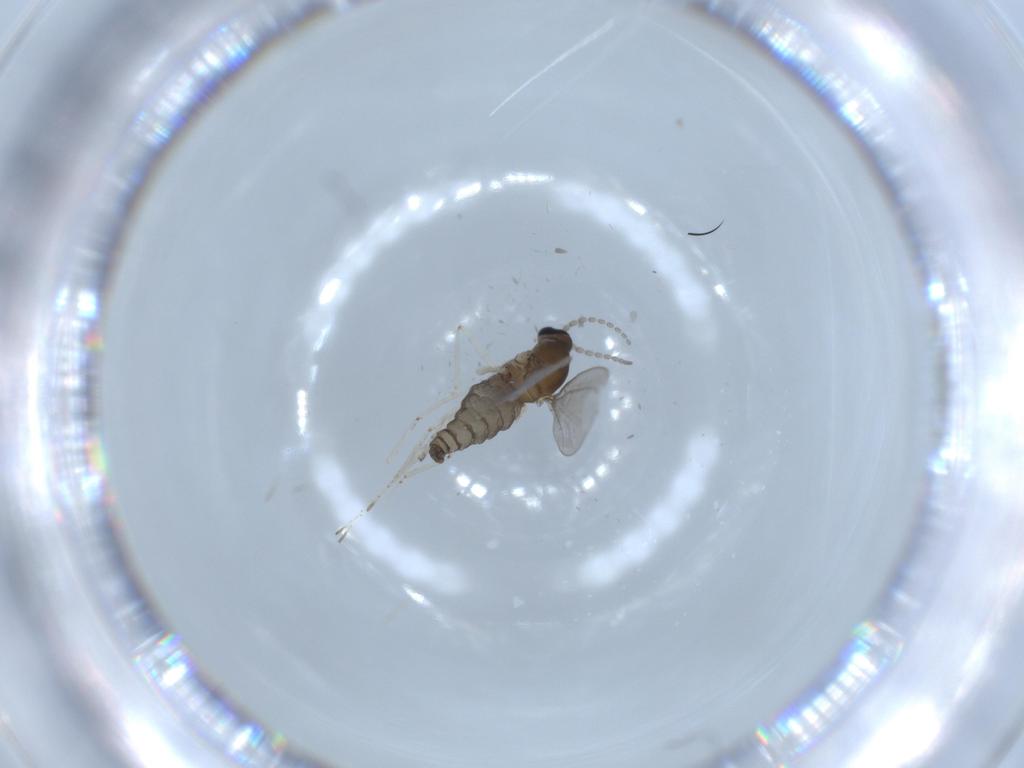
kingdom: Animalia
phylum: Arthropoda
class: Insecta
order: Diptera
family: Cecidomyiidae
